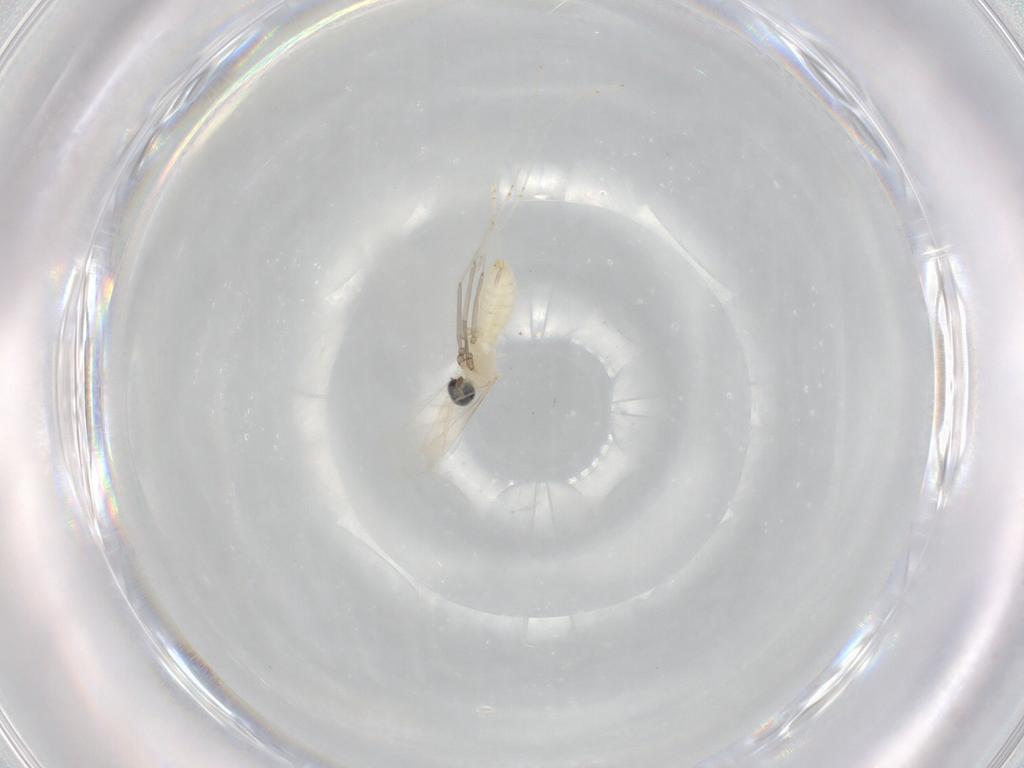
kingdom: Animalia
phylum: Arthropoda
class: Insecta
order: Diptera
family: Cecidomyiidae
